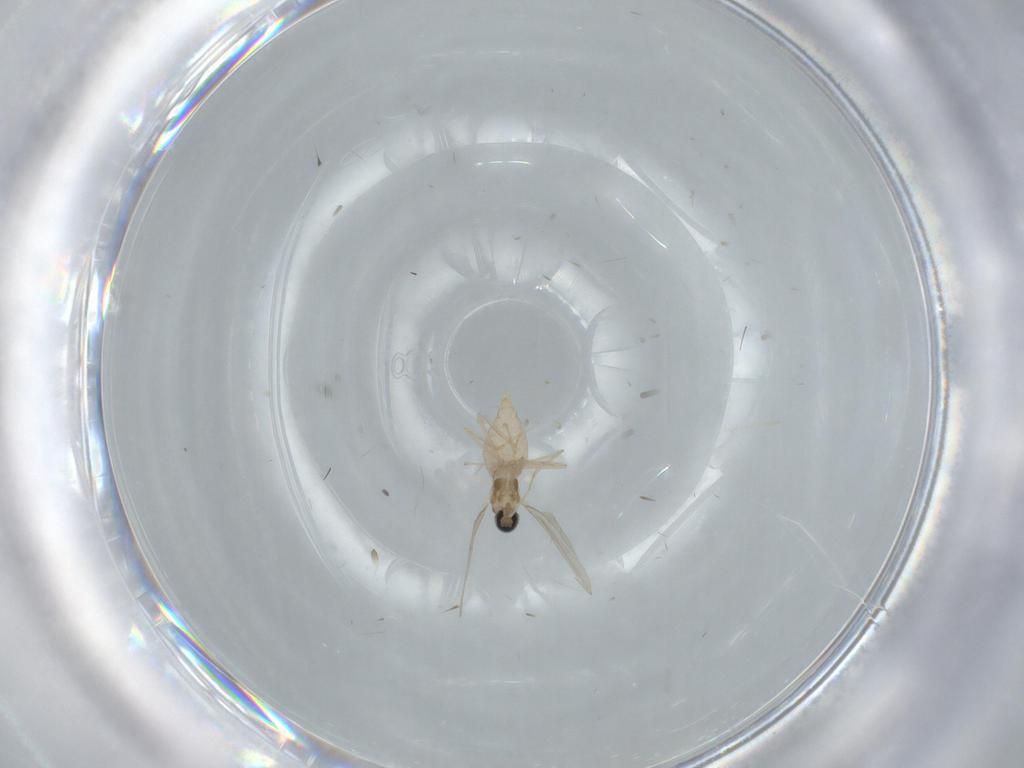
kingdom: Animalia
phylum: Arthropoda
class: Insecta
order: Diptera
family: Cecidomyiidae
